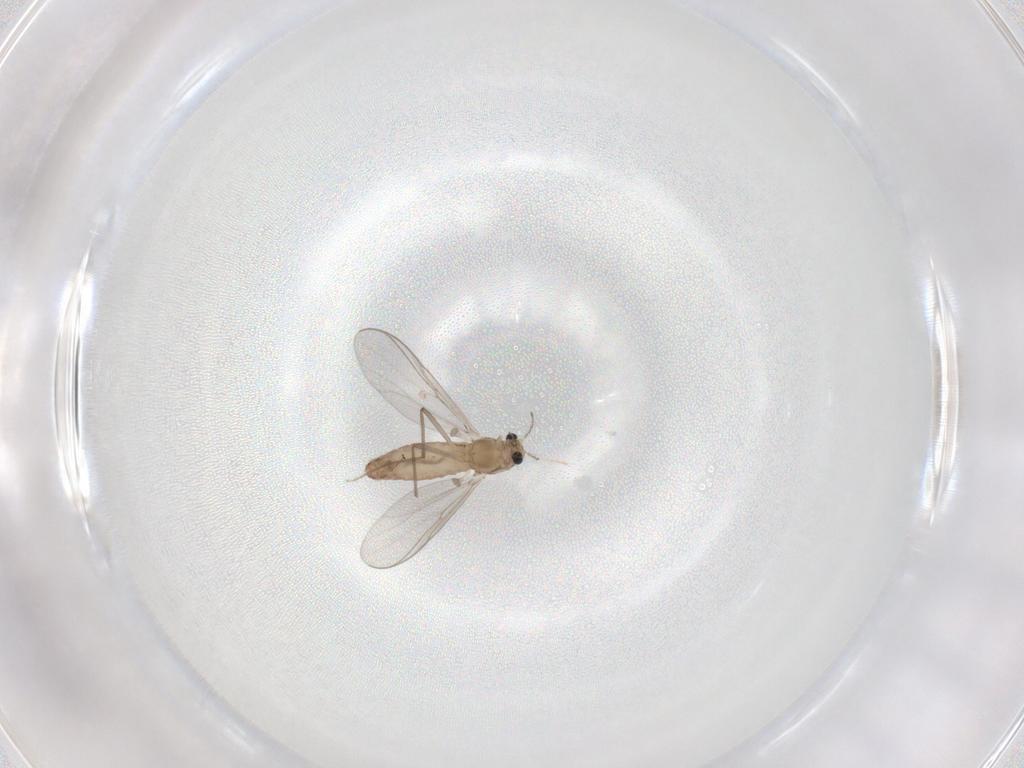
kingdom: Animalia
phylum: Arthropoda
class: Insecta
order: Diptera
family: Chironomidae
